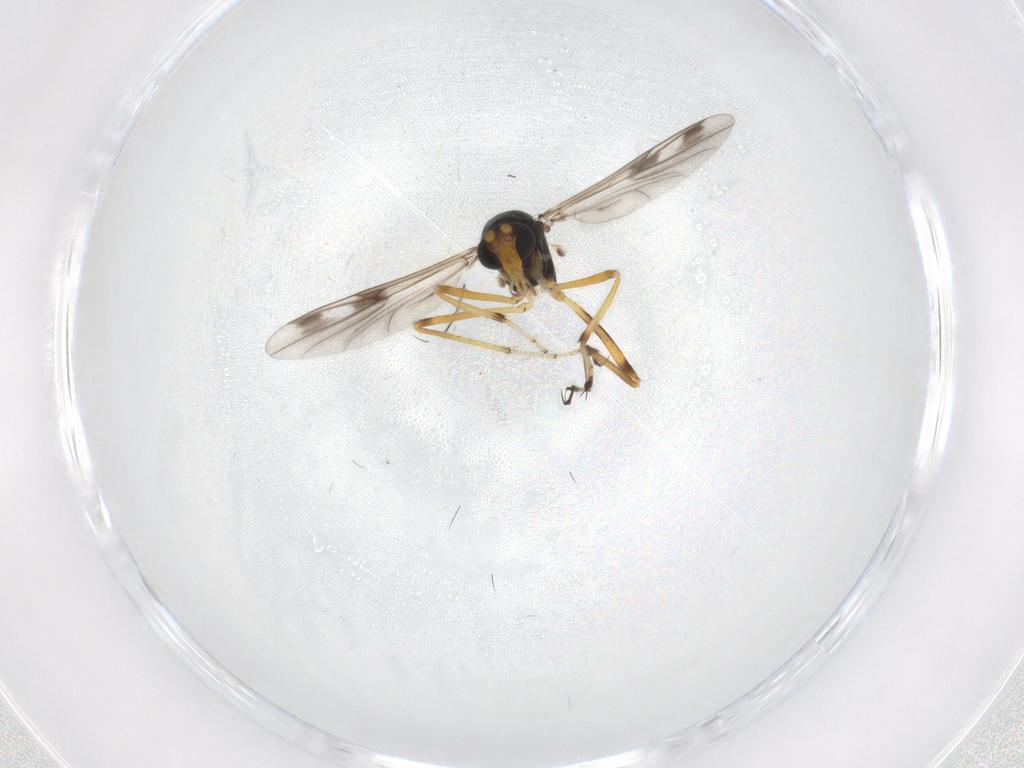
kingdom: Animalia
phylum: Arthropoda
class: Insecta
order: Diptera
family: Ceratopogonidae
